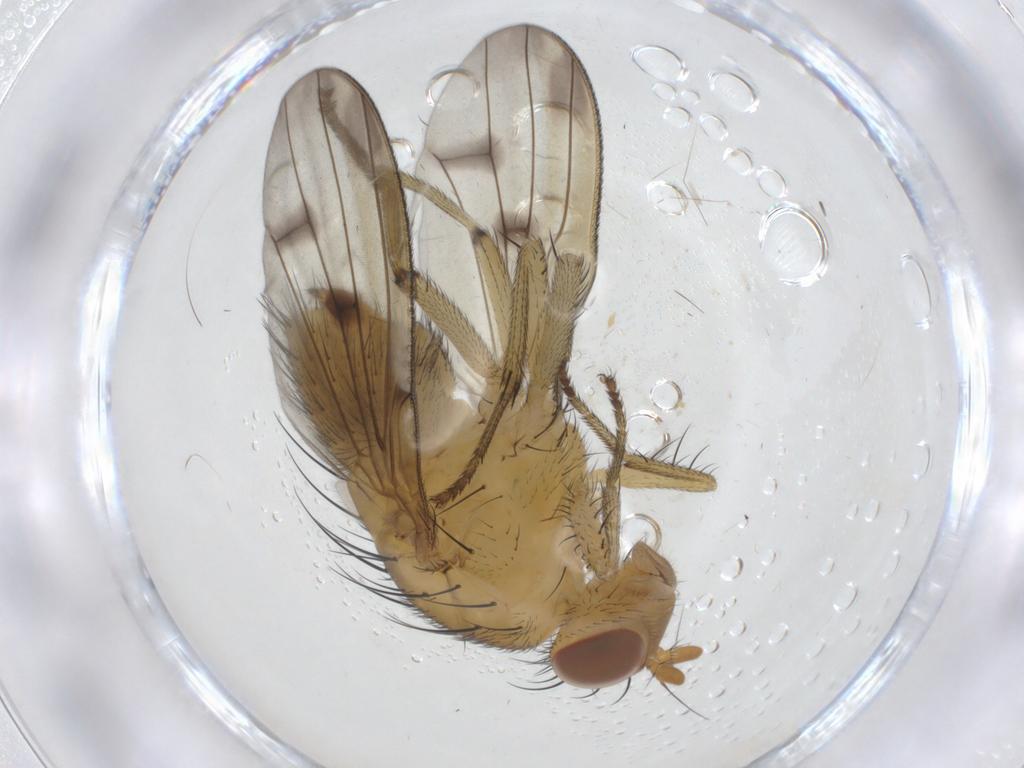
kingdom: Animalia
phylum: Arthropoda
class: Insecta
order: Diptera
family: Lauxaniidae
